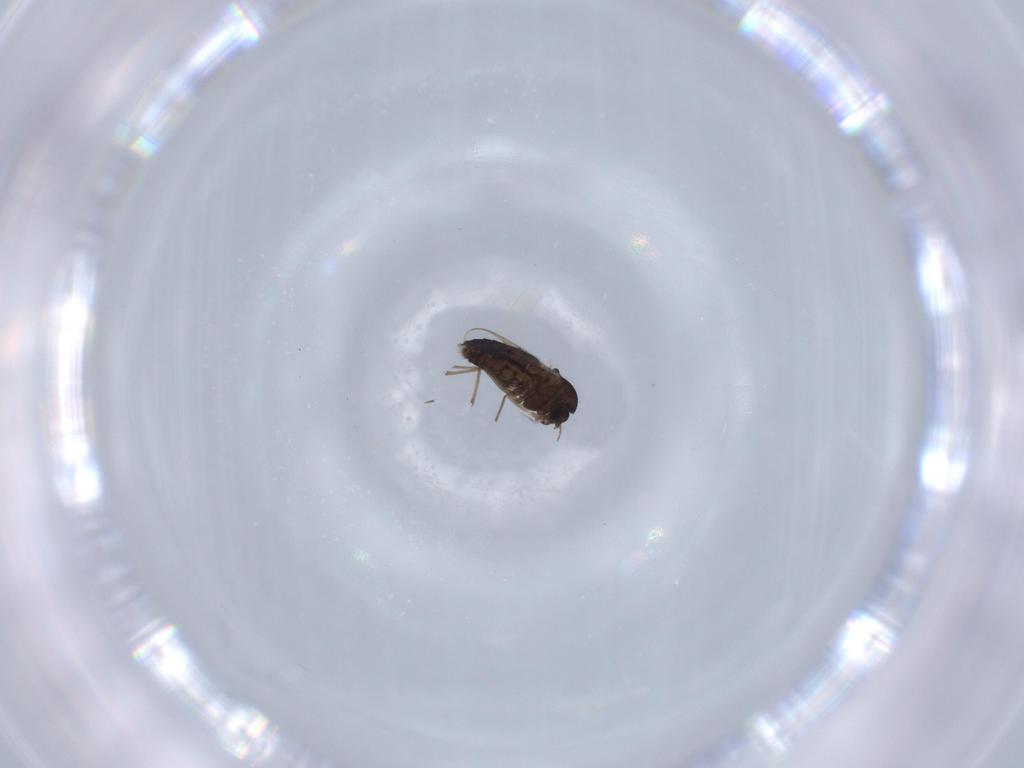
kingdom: Animalia
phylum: Arthropoda
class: Insecta
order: Diptera
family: Chironomidae
